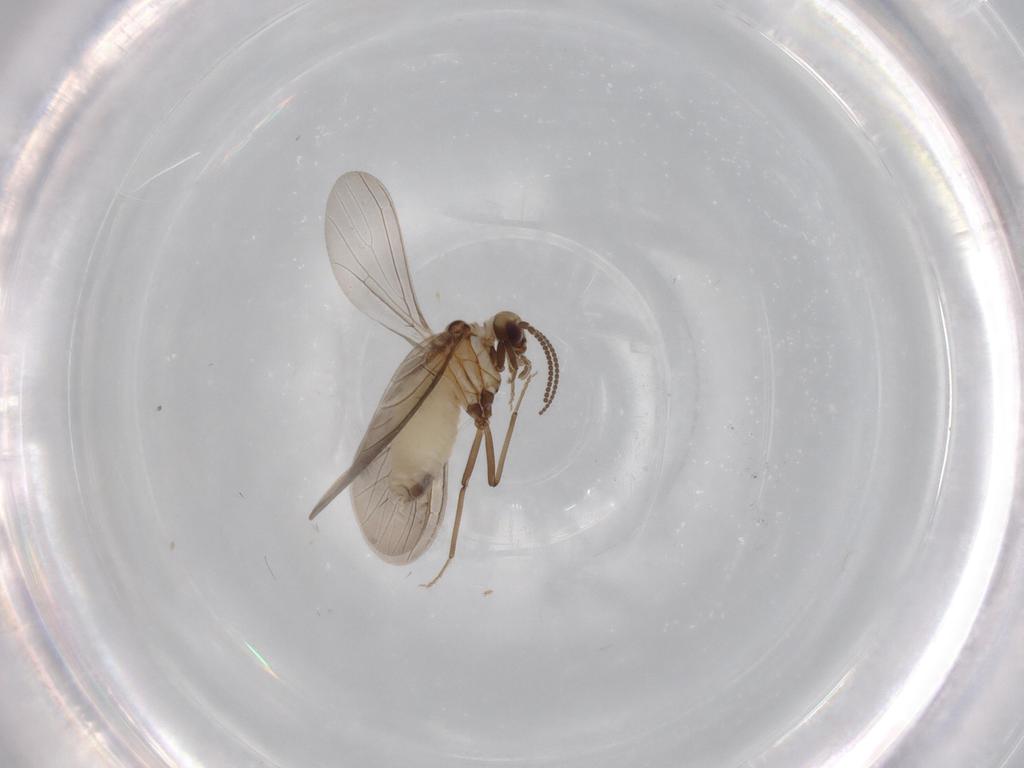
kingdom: Animalia
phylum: Arthropoda
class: Insecta
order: Neuroptera
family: Coniopterygidae
